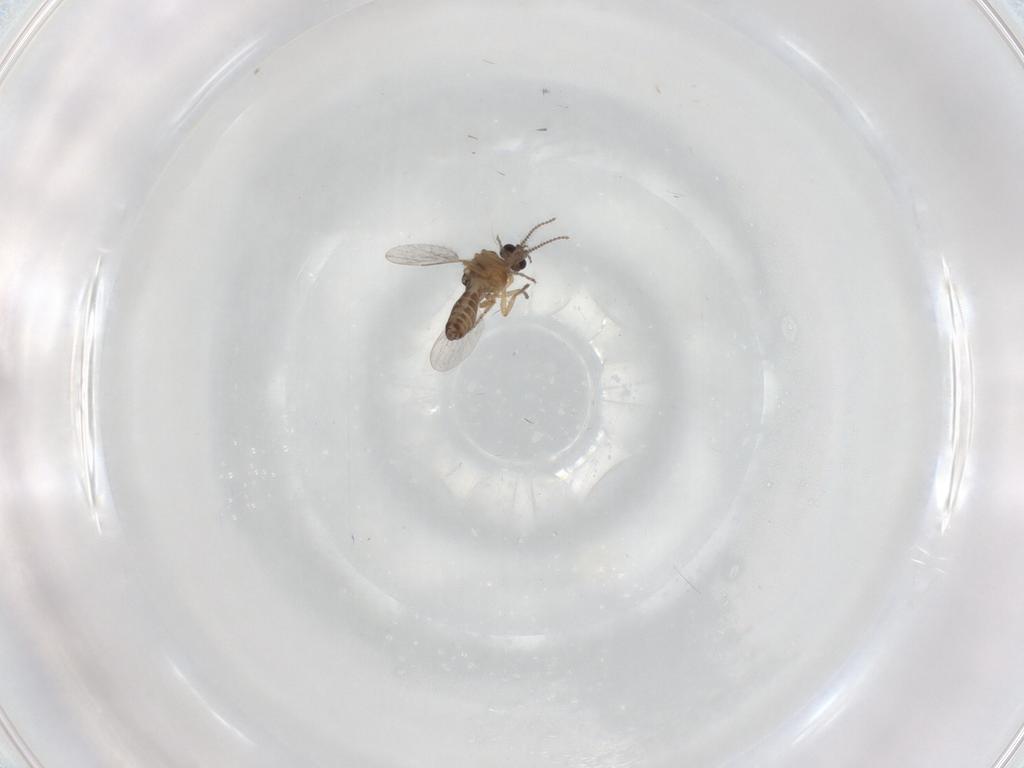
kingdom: Animalia
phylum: Arthropoda
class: Insecta
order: Diptera
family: Ceratopogonidae
